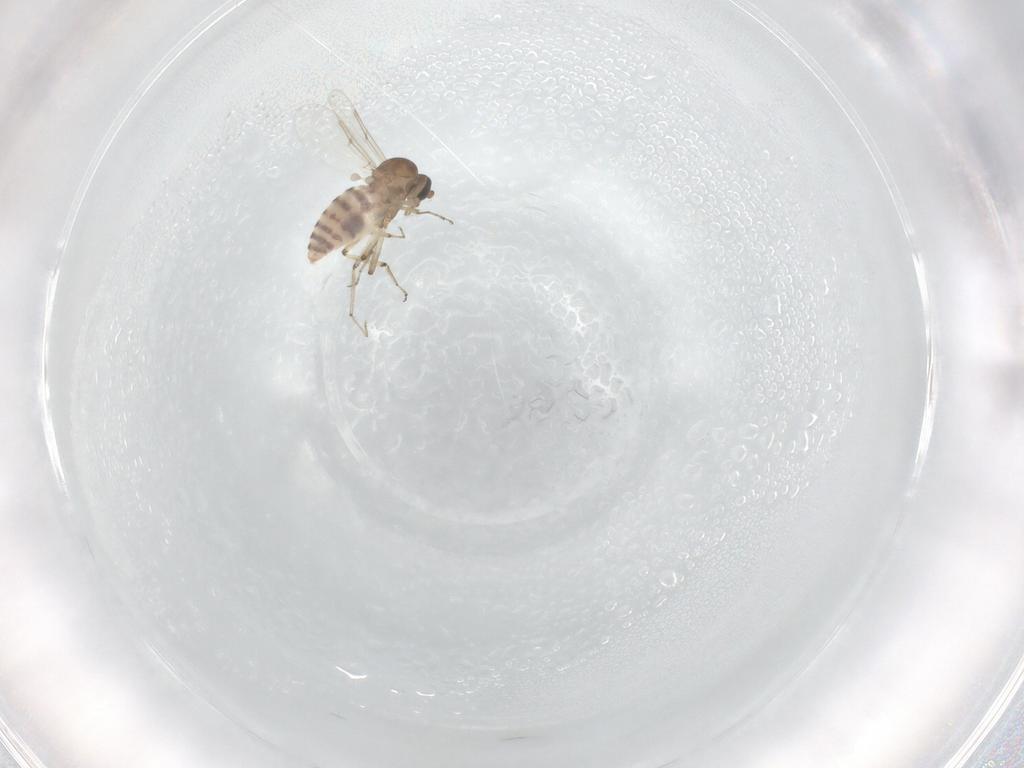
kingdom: Animalia
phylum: Arthropoda
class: Insecta
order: Diptera
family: Cecidomyiidae
